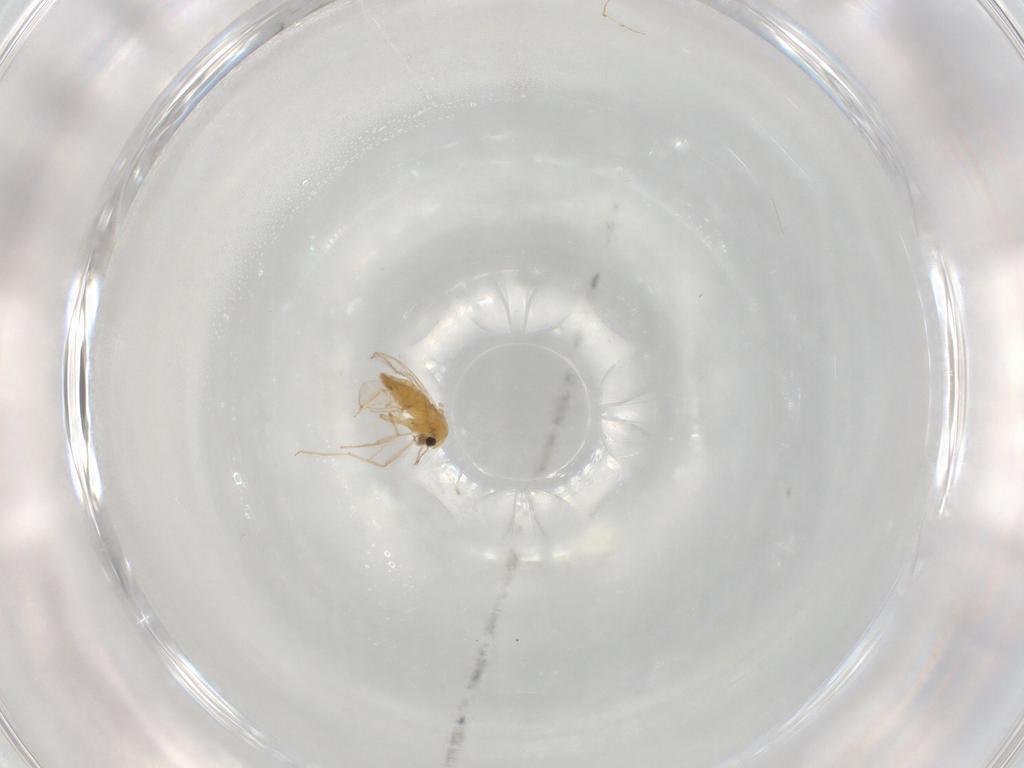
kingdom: Animalia
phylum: Arthropoda
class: Insecta
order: Diptera
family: Chironomidae
